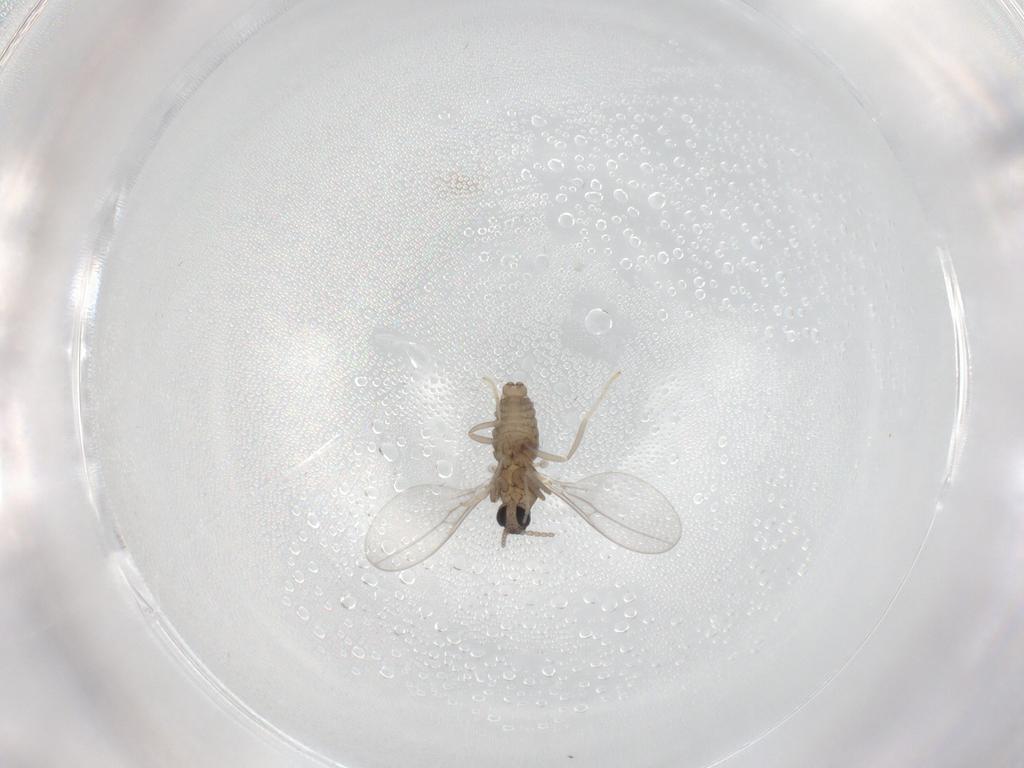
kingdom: Animalia
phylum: Arthropoda
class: Insecta
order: Diptera
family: Cecidomyiidae
